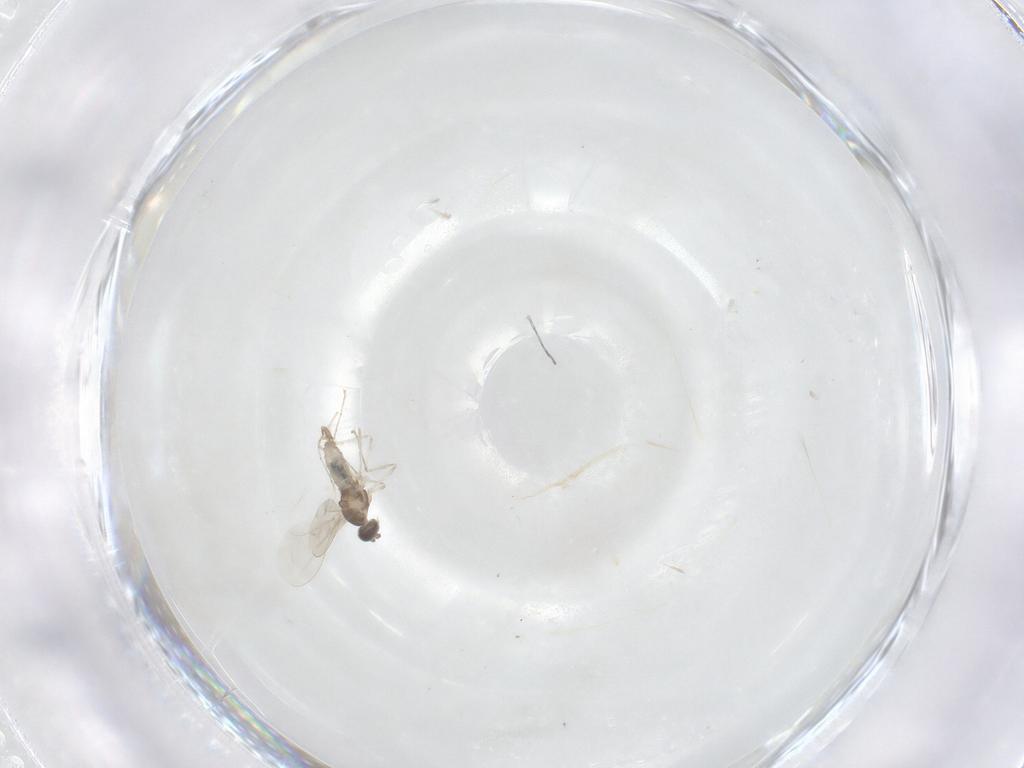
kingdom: Animalia
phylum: Arthropoda
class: Insecta
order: Diptera
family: Cecidomyiidae
